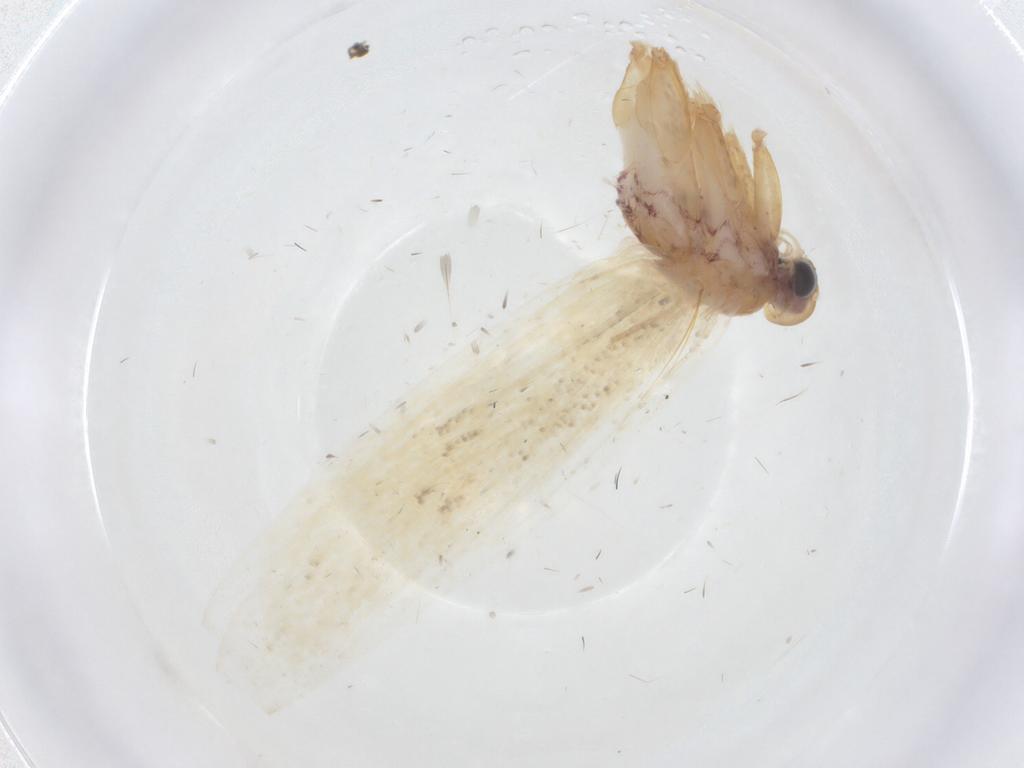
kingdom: Animalia
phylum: Arthropoda
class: Insecta
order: Lepidoptera
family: Crambidae
